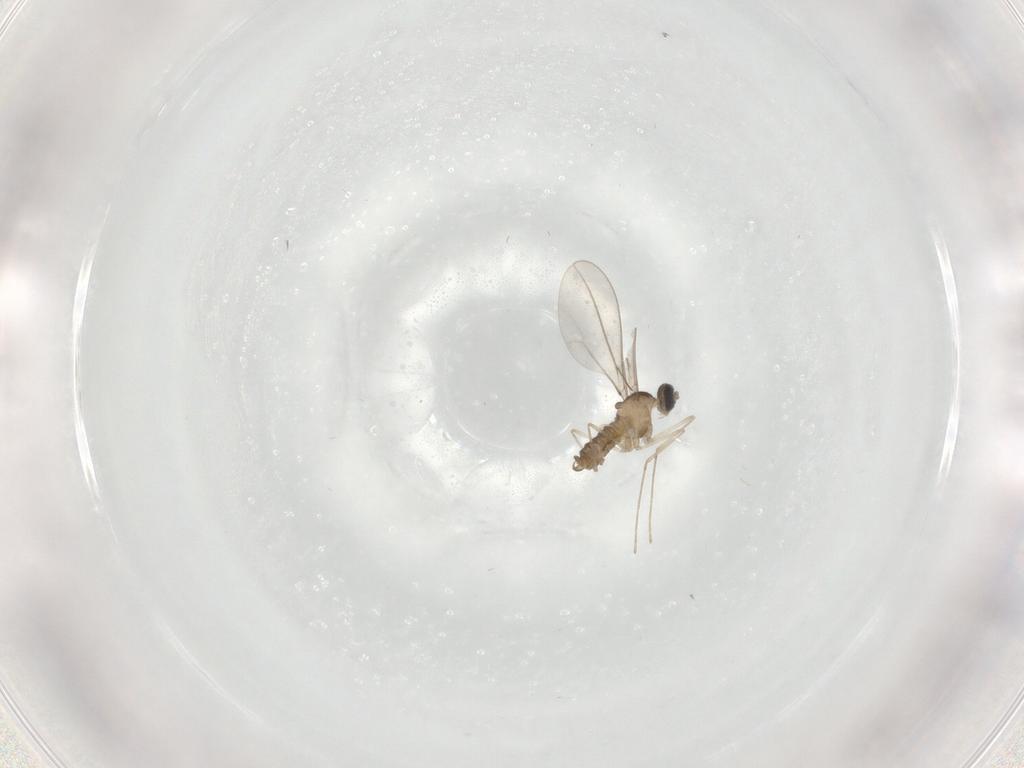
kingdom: Animalia
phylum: Arthropoda
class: Insecta
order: Diptera
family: Cecidomyiidae
